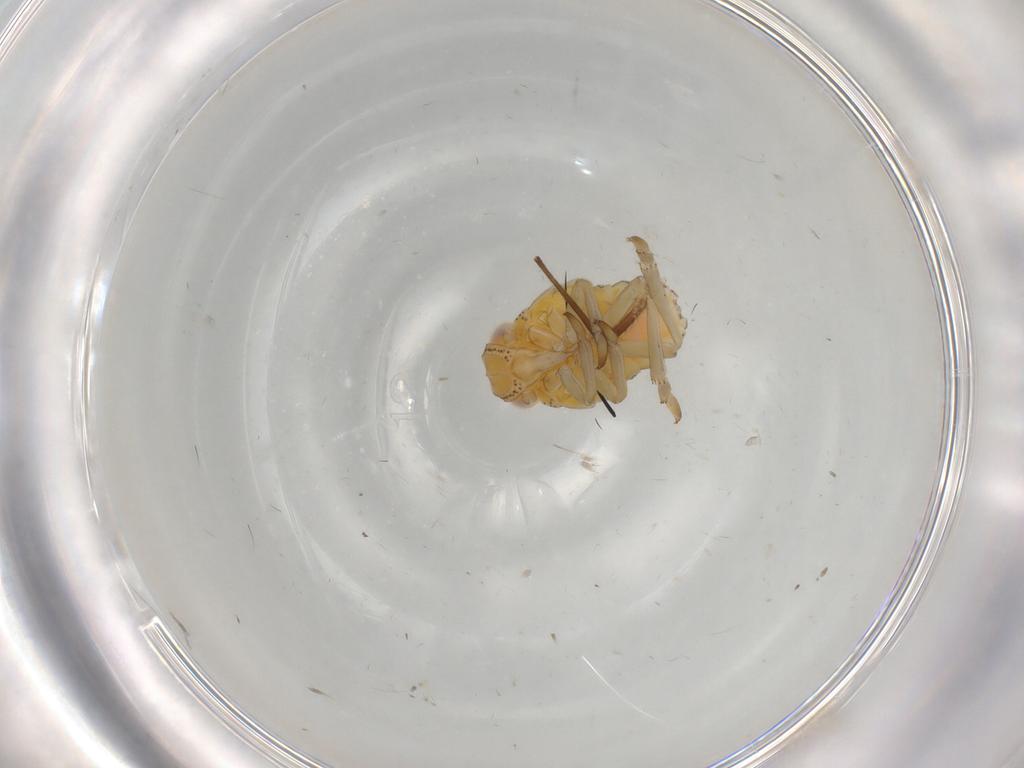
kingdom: Animalia
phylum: Arthropoda
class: Insecta
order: Hemiptera
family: Tropiduchidae
